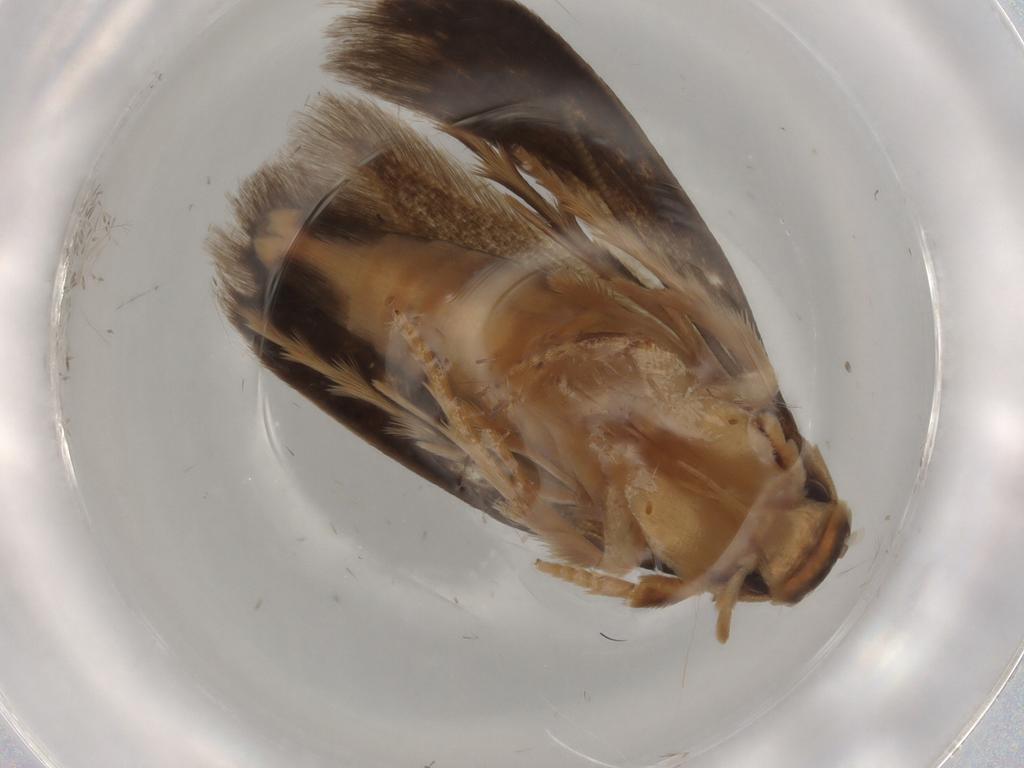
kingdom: Animalia
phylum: Arthropoda
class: Insecta
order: Lepidoptera
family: Tineidae
